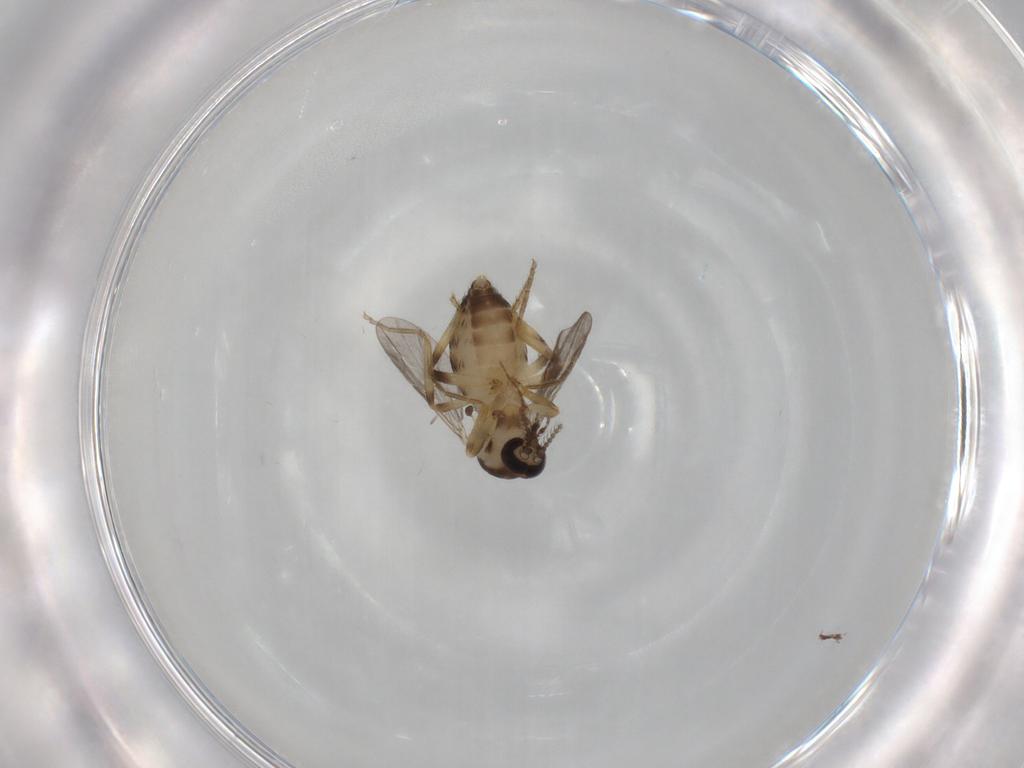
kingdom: Animalia
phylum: Arthropoda
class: Insecta
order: Diptera
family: Ceratopogonidae
